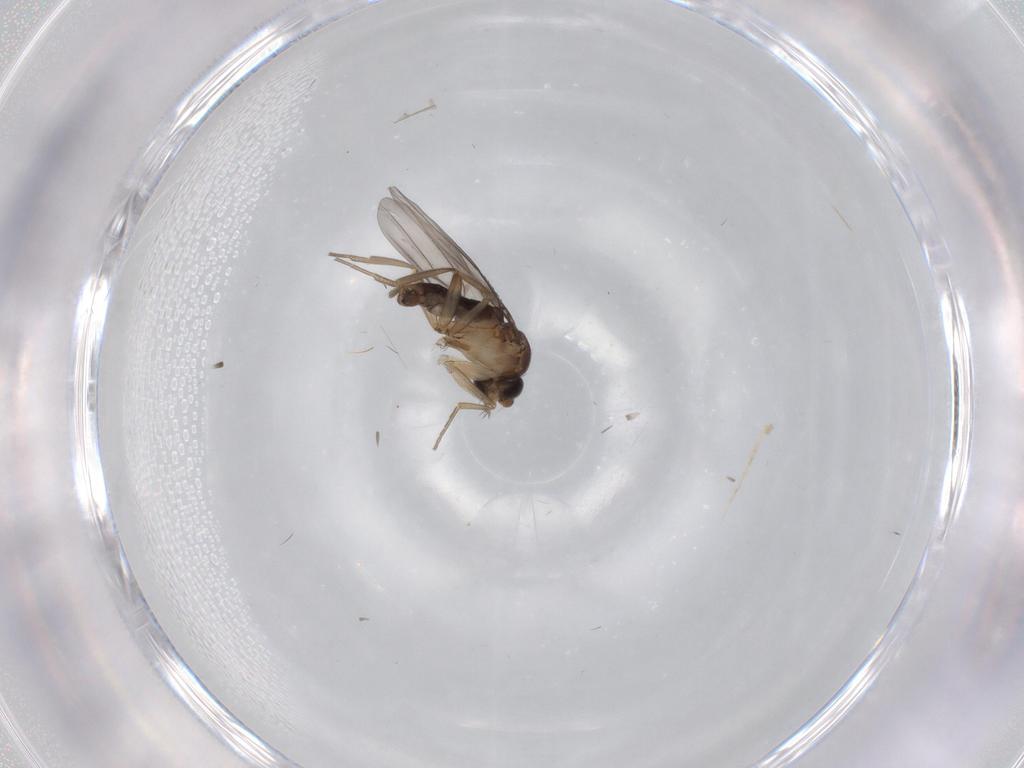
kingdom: Animalia
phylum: Arthropoda
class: Insecta
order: Diptera
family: Phoridae
